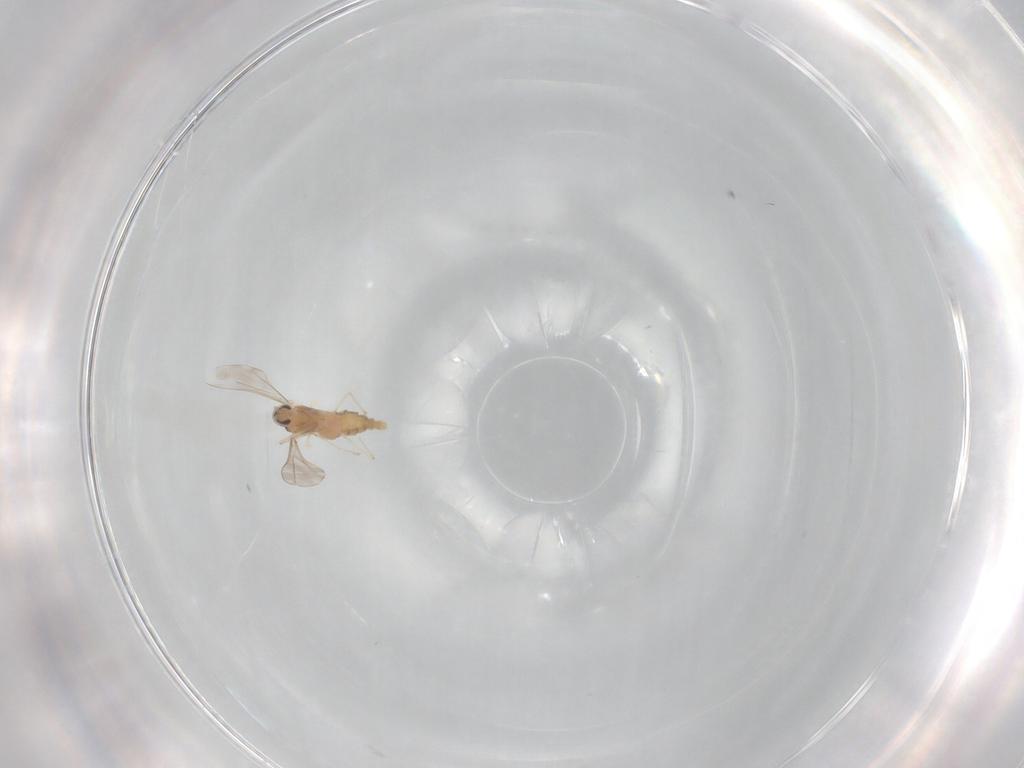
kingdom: Animalia
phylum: Arthropoda
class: Insecta
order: Diptera
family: Cecidomyiidae
